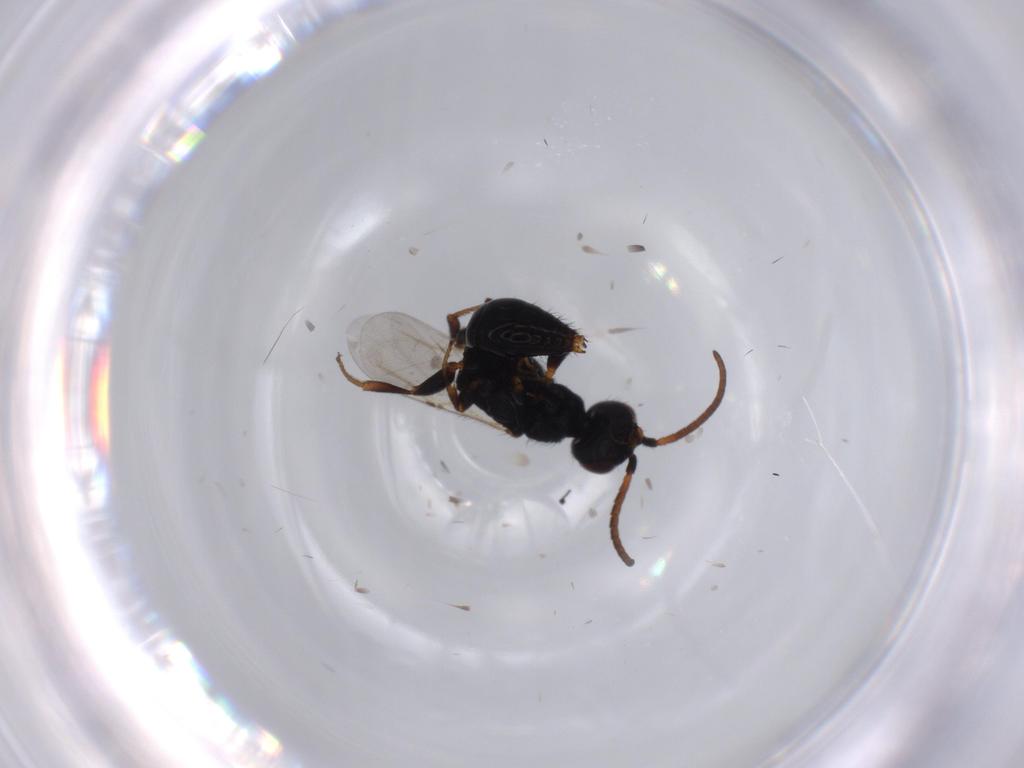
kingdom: Animalia
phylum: Arthropoda
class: Insecta
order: Hymenoptera
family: Bethylidae
